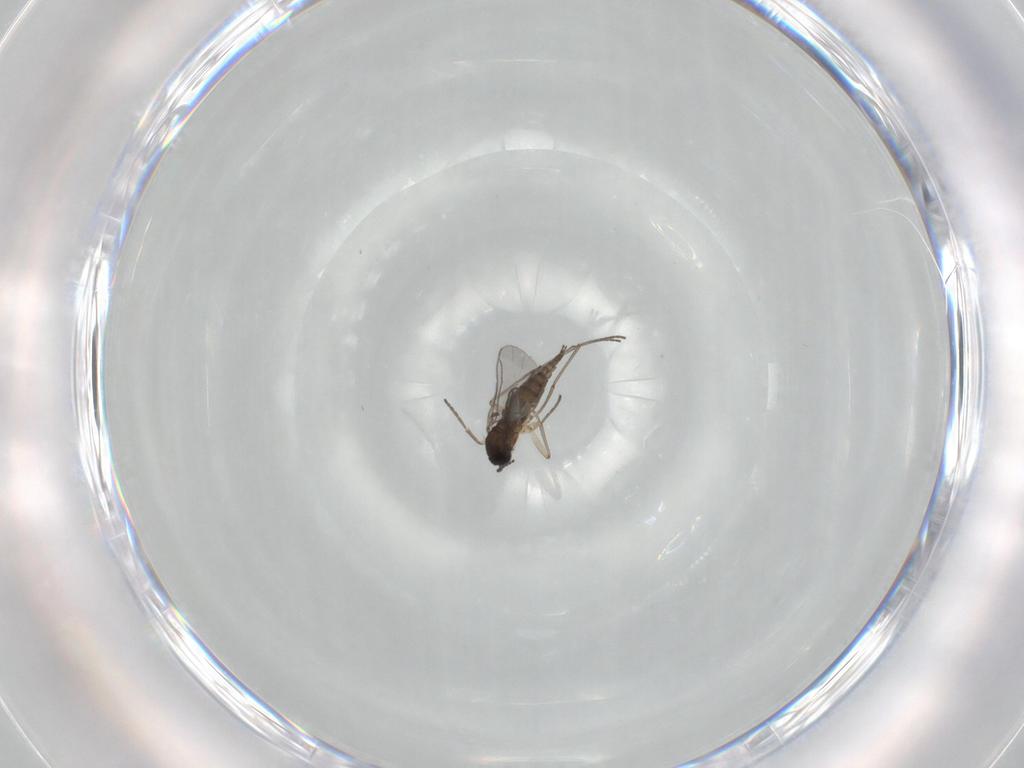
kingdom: Animalia
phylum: Arthropoda
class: Insecta
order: Diptera
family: Sciaridae
